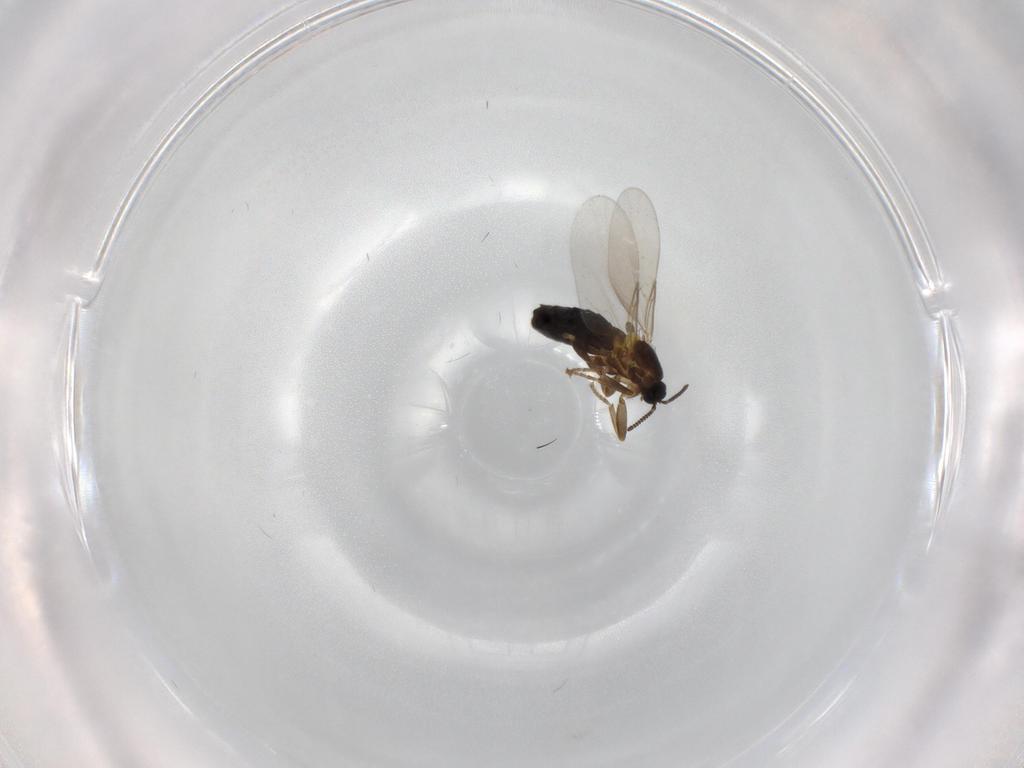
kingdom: Animalia
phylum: Arthropoda
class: Insecta
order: Diptera
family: Scatopsidae
